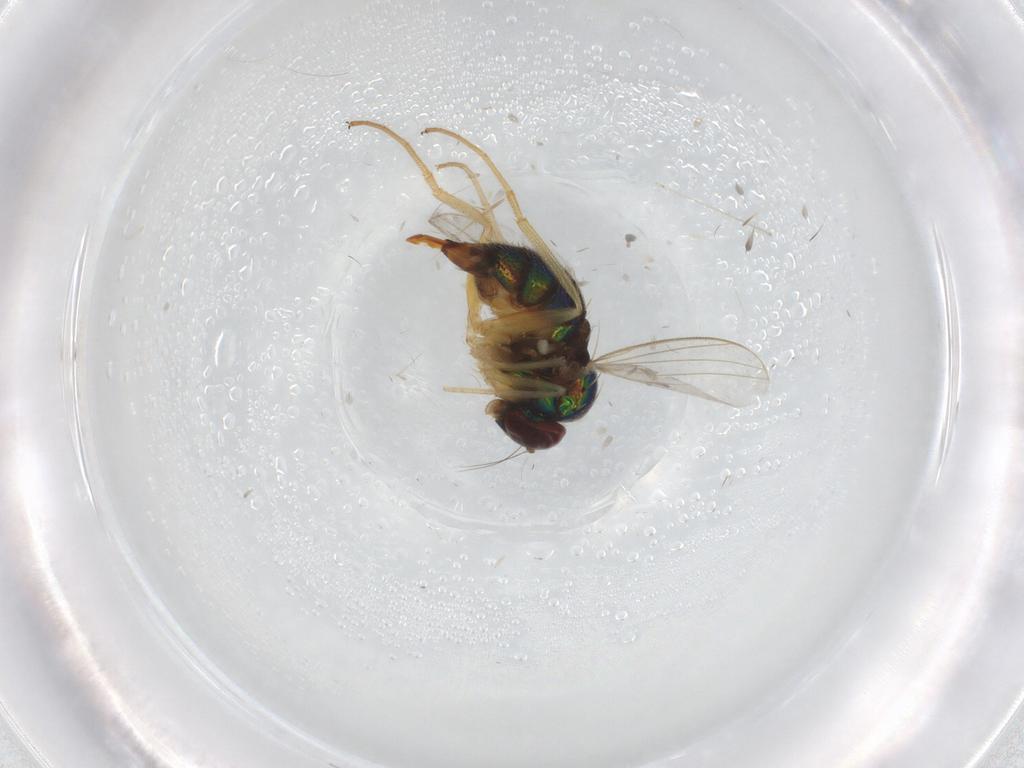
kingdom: Animalia
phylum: Arthropoda
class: Insecta
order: Diptera
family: Dolichopodidae
